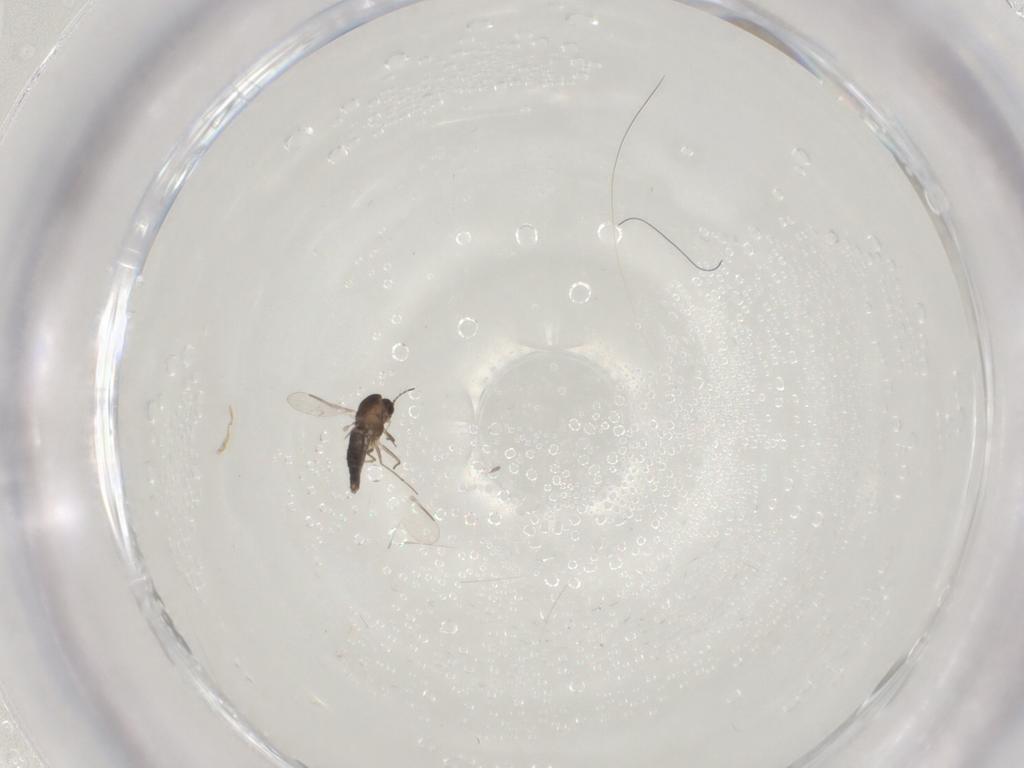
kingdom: Animalia
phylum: Arthropoda
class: Insecta
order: Diptera
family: Chironomidae
